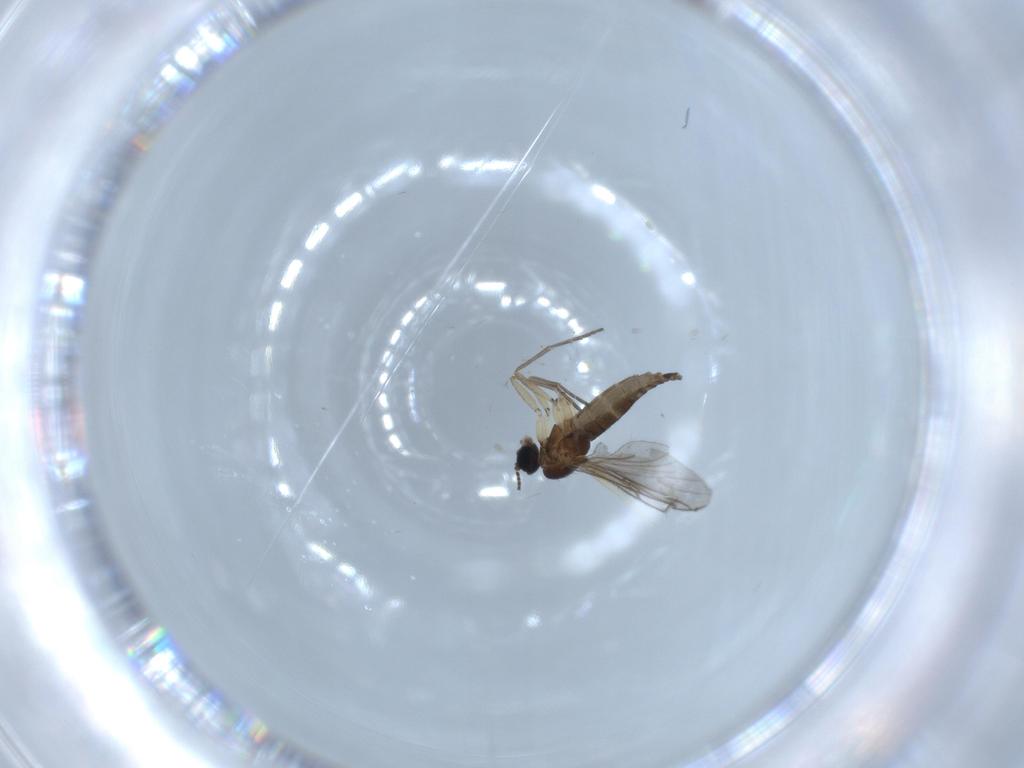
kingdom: Animalia
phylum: Arthropoda
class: Insecta
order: Diptera
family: Sciaridae
